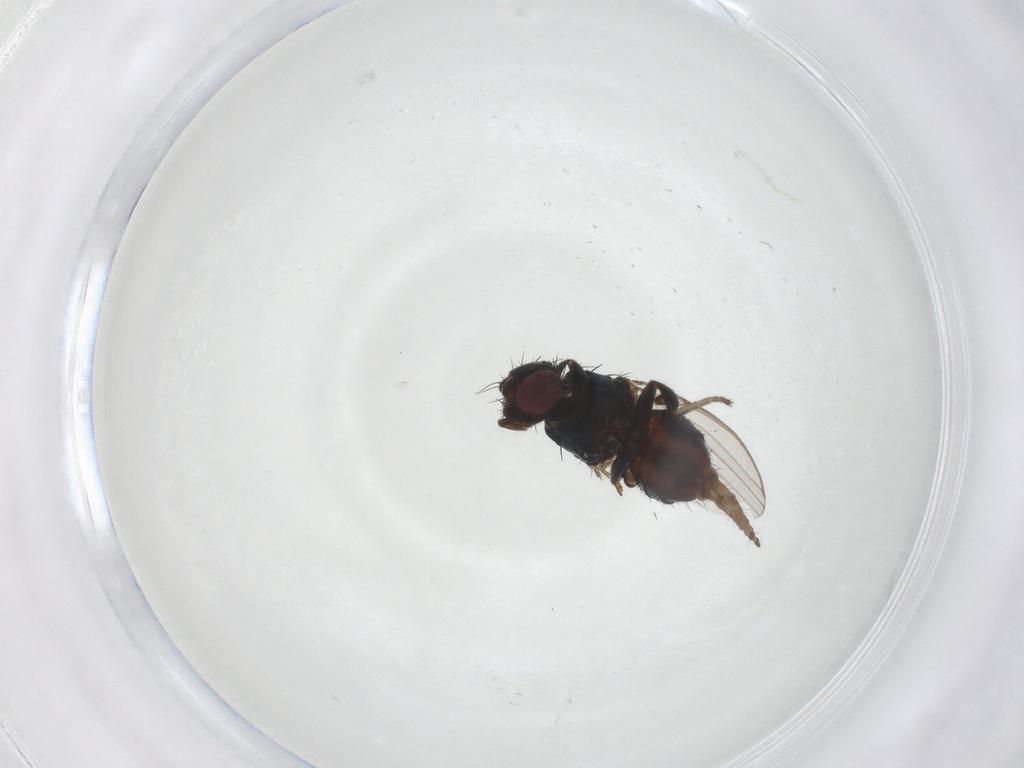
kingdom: Animalia
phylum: Arthropoda
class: Insecta
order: Diptera
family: Chloropidae
